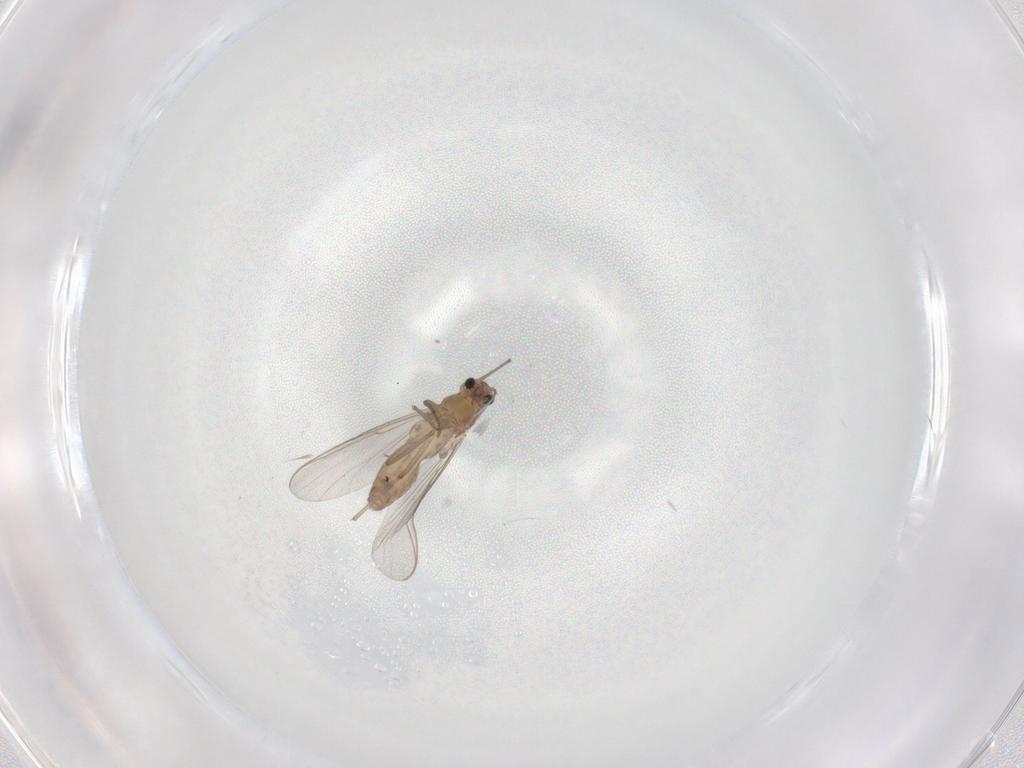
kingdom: Animalia
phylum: Arthropoda
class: Insecta
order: Diptera
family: Chironomidae
